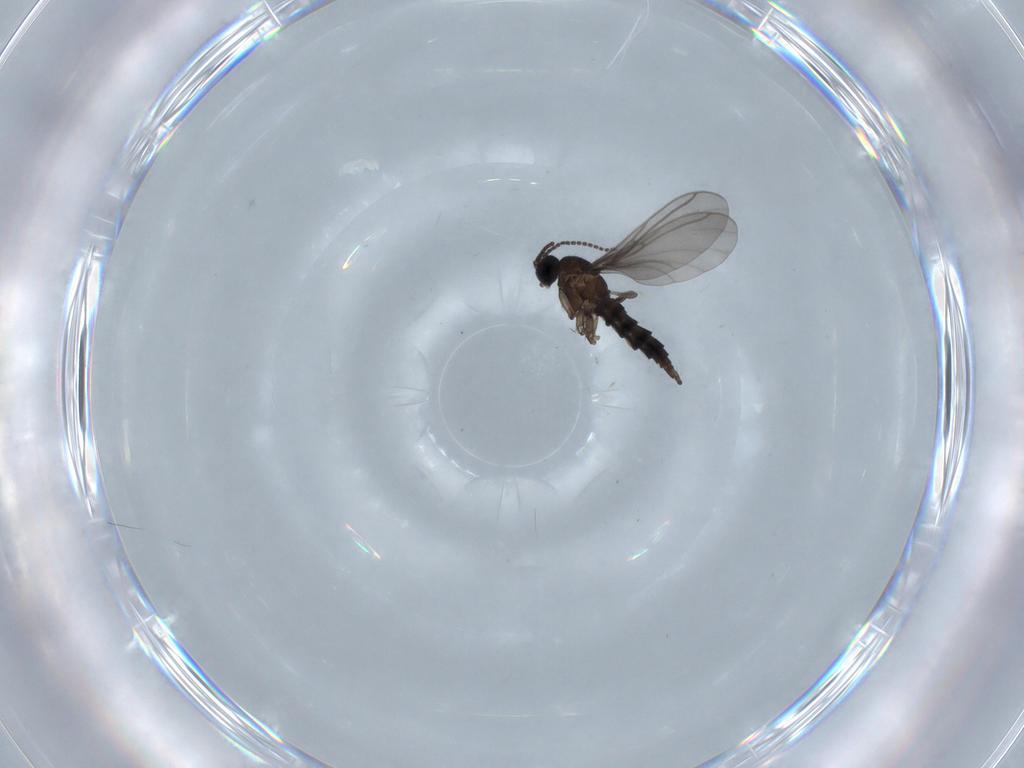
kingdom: Animalia
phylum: Arthropoda
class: Insecta
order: Diptera
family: Sciaridae
